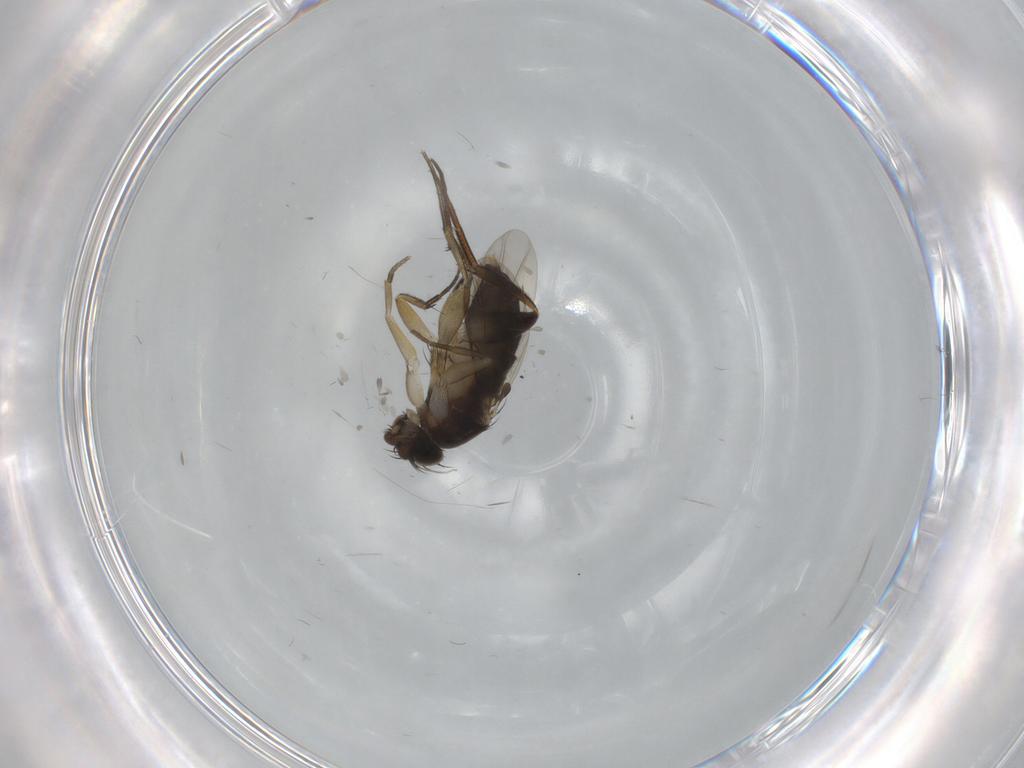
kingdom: Animalia
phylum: Arthropoda
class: Insecta
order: Diptera
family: Phoridae
